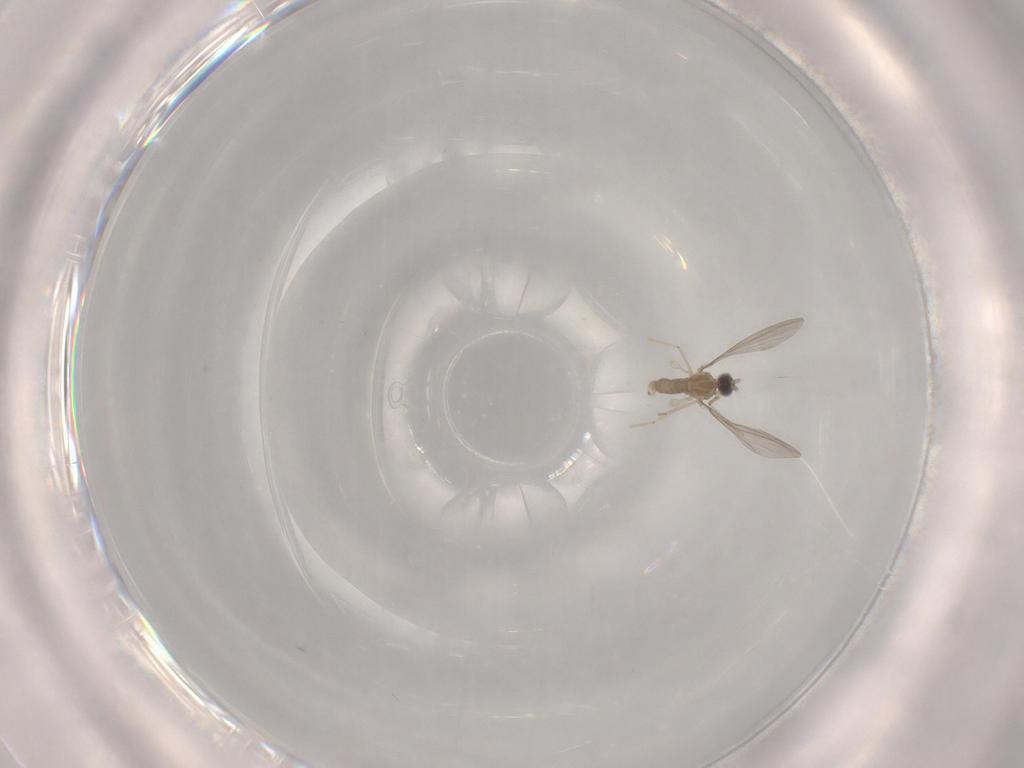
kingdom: Animalia
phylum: Arthropoda
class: Insecta
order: Diptera
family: Cecidomyiidae
